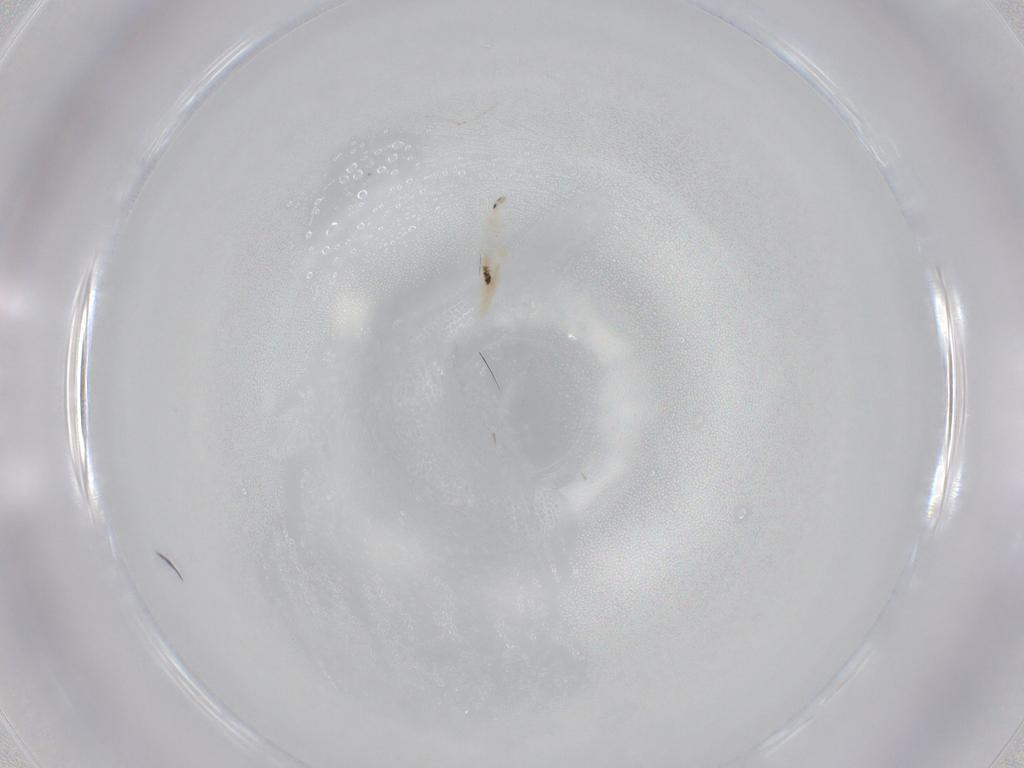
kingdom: Animalia
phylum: Arthropoda
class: Collembola
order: Entomobryomorpha
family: Entomobryidae
